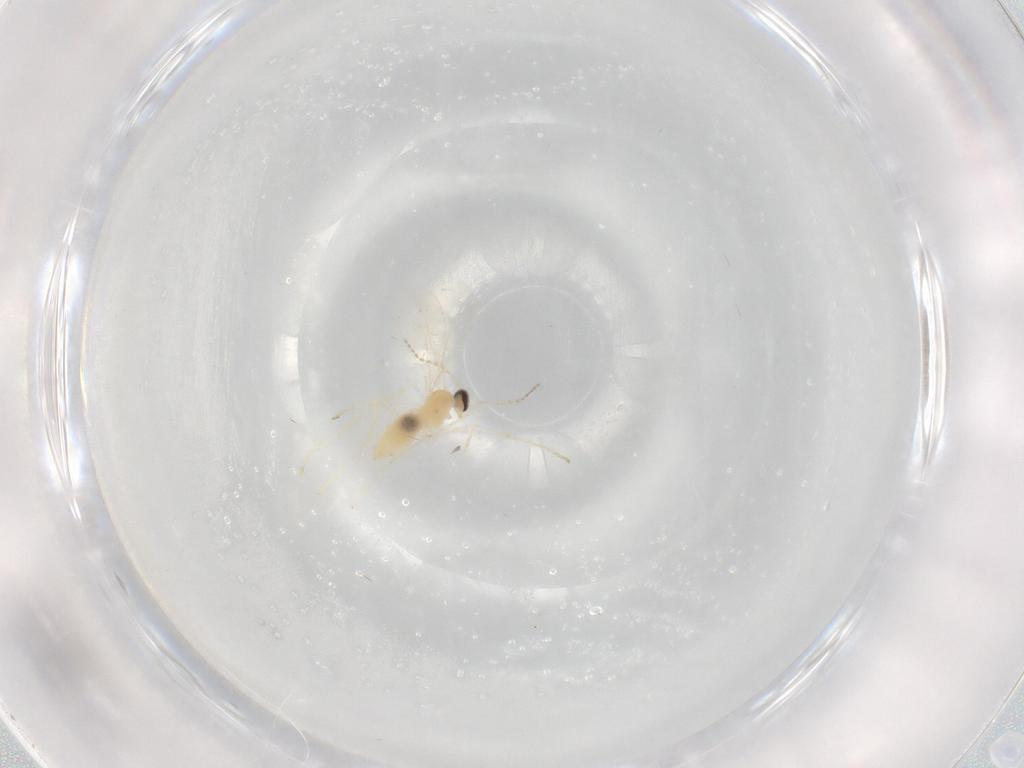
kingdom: Animalia
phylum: Arthropoda
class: Insecta
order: Diptera
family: Cecidomyiidae
